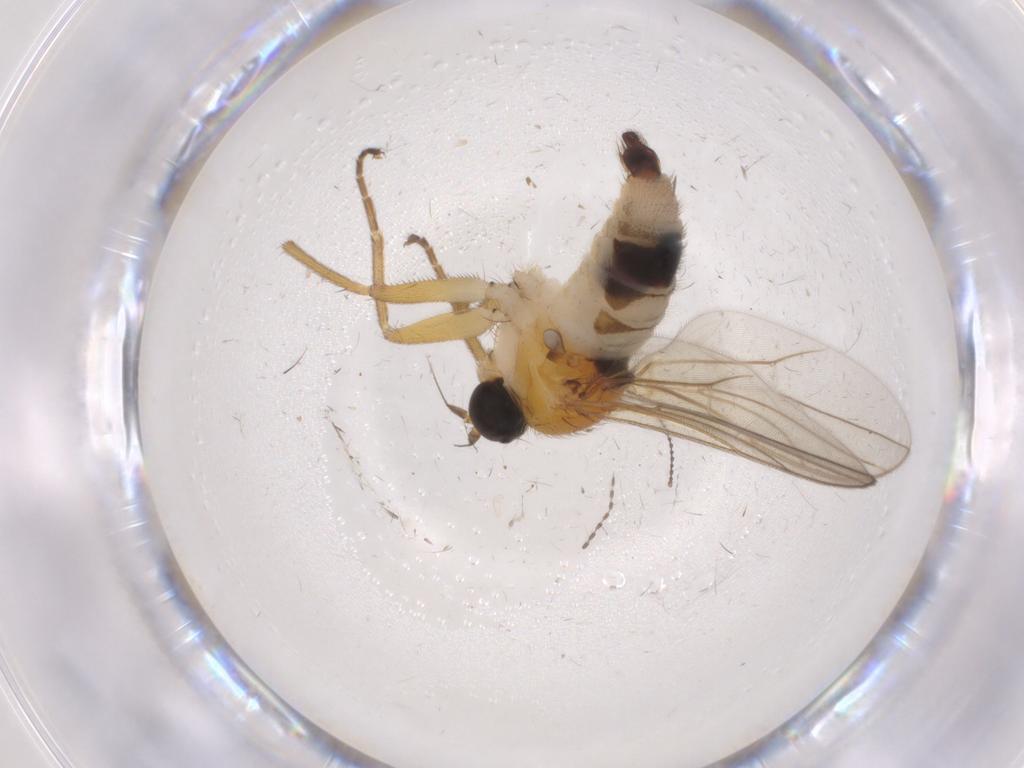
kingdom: Animalia
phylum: Arthropoda
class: Insecta
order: Diptera
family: Hybotidae
